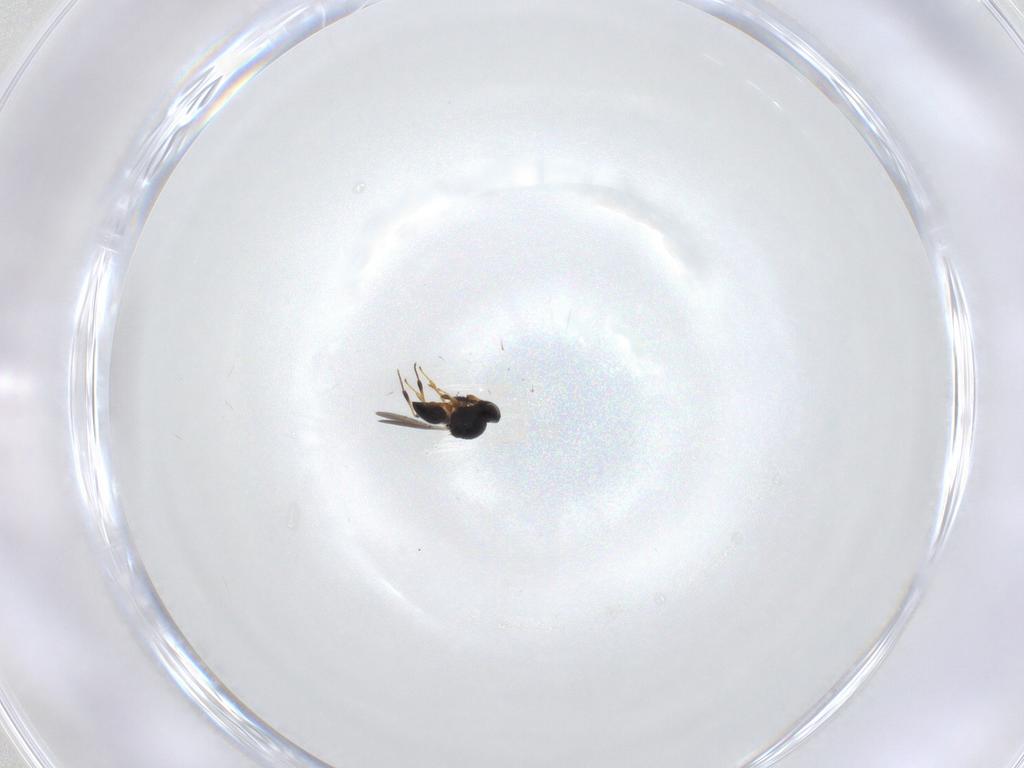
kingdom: Animalia
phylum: Arthropoda
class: Insecta
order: Hymenoptera
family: Platygastridae
